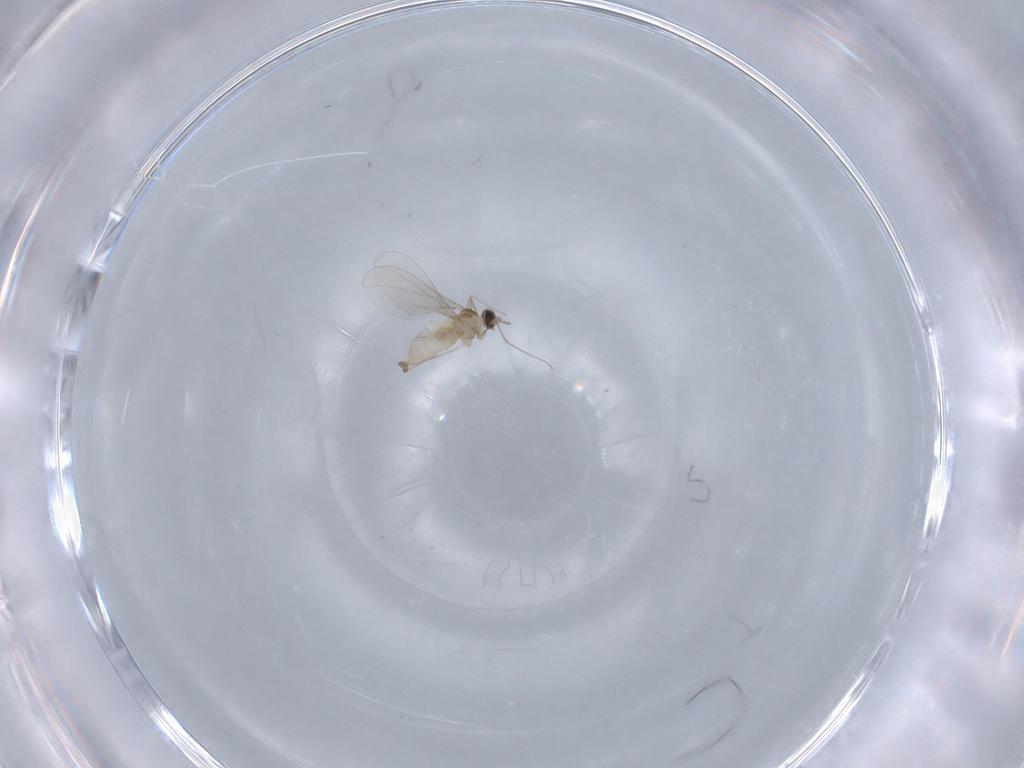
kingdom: Animalia
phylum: Arthropoda
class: Insecta
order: Diptera
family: Cecidomyiidae
